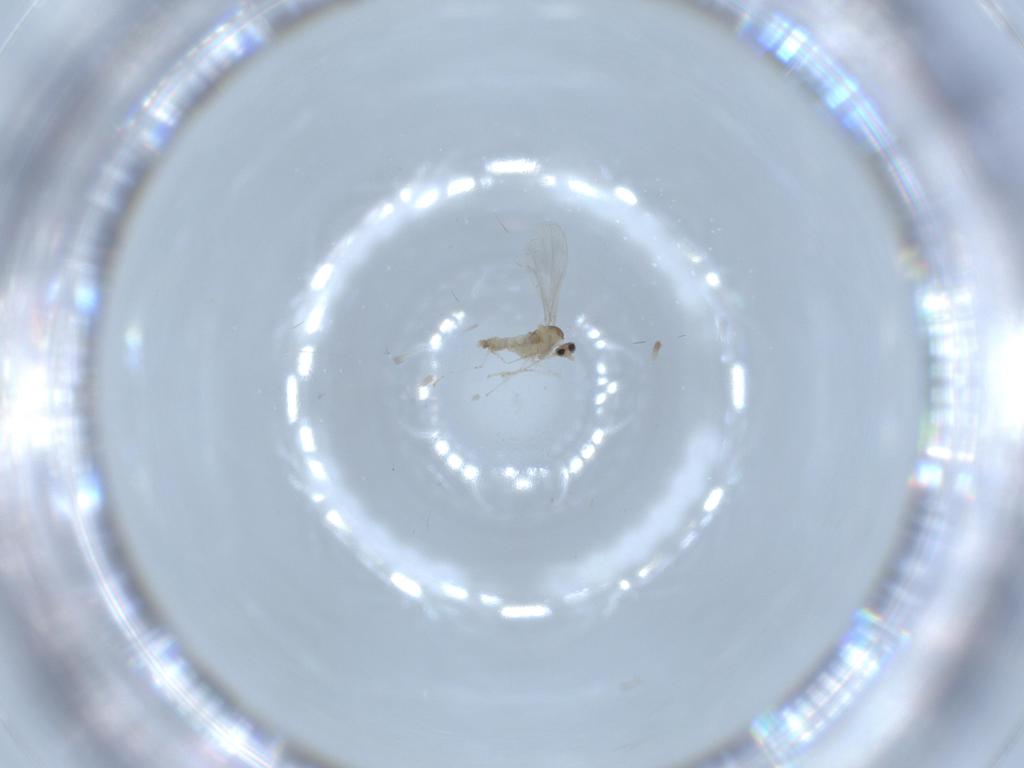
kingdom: Animalia
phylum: Arthropoda
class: Insecta
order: Diptera
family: Cecidomyiidae
